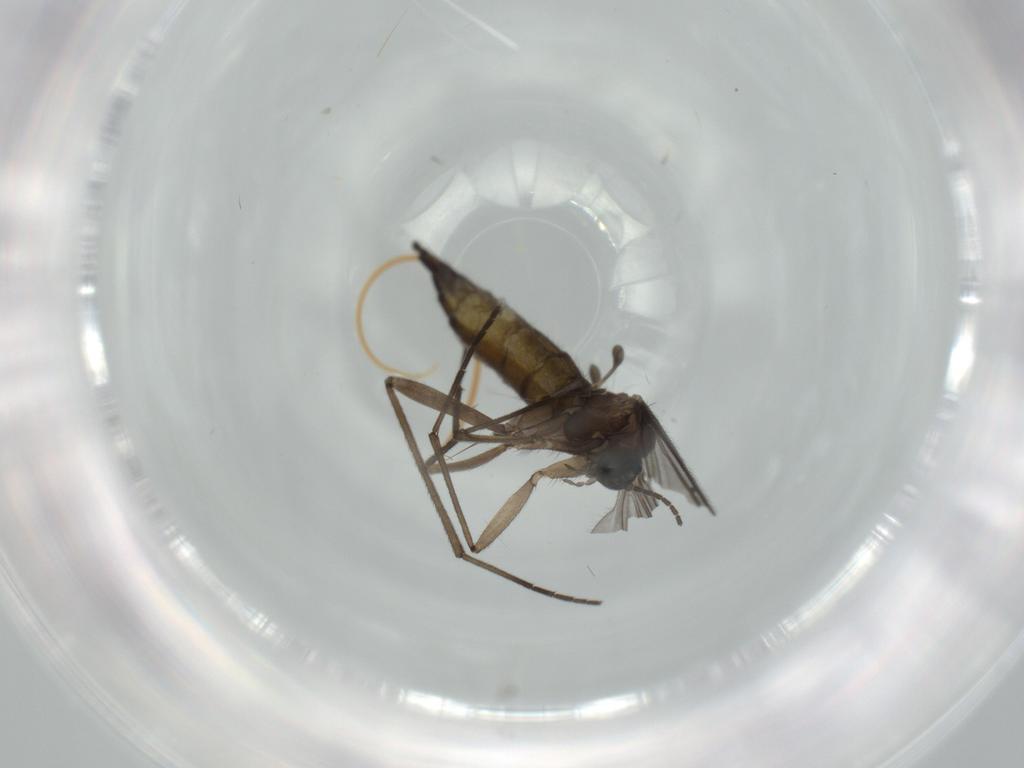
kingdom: Animalia
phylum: Arthropoda
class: Insecta
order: Diptera
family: Sciaridae
